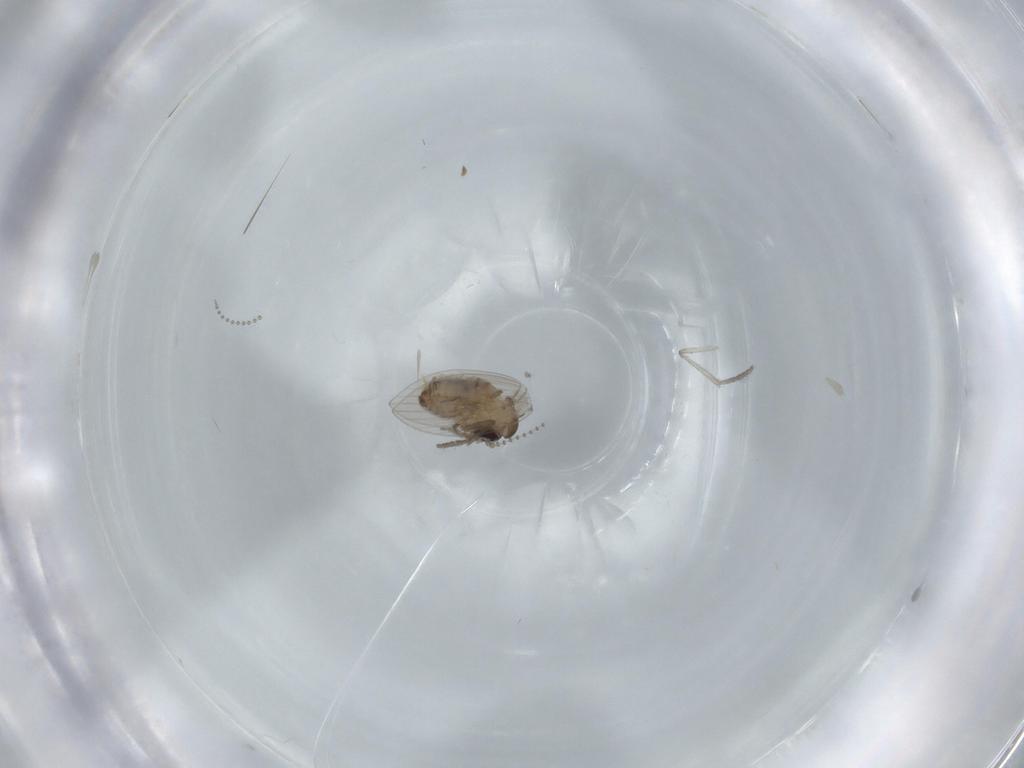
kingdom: Animalia
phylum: Arthropoda
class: Insecta
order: Diptera
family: Psychodidae
